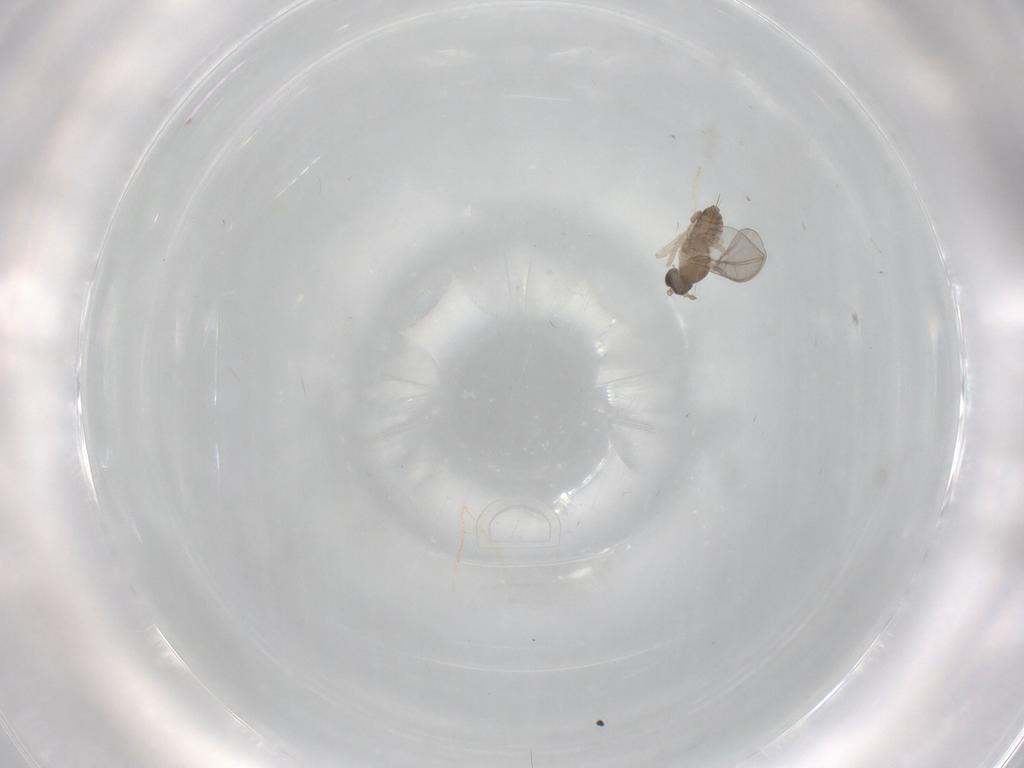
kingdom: Animalia
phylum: Arthropoda
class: Insecta
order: Diptera
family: Cecidomyiidae
